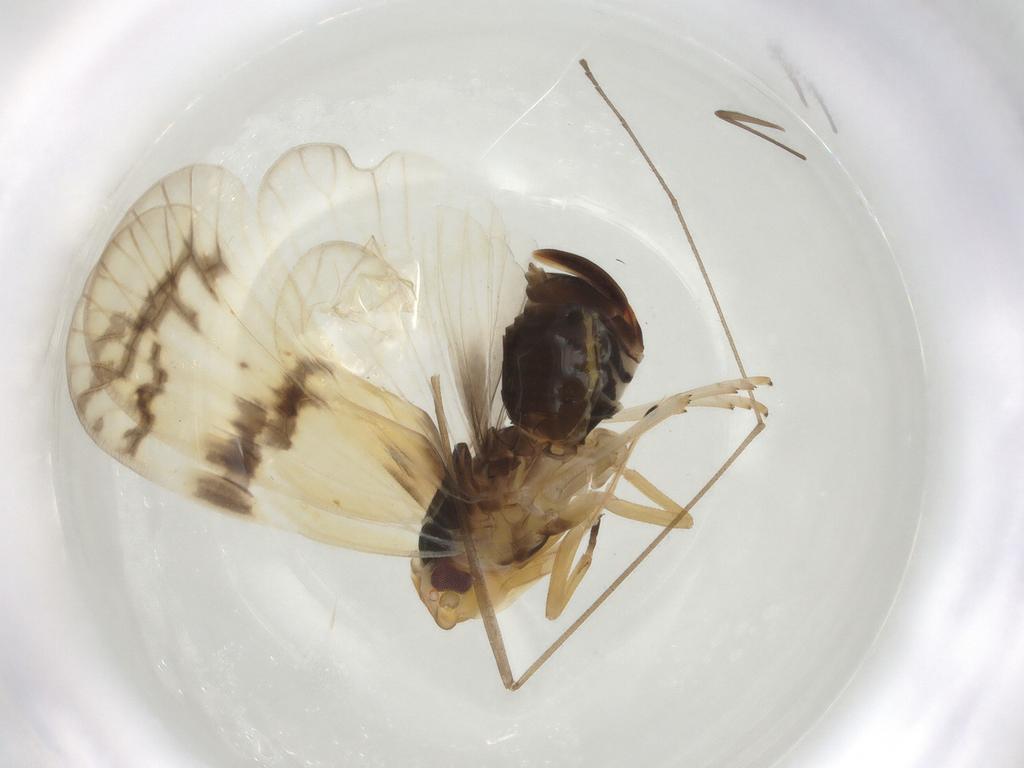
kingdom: Animalia
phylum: Arthropoda
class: Insecta
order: Hemiptera
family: Cixiidae
